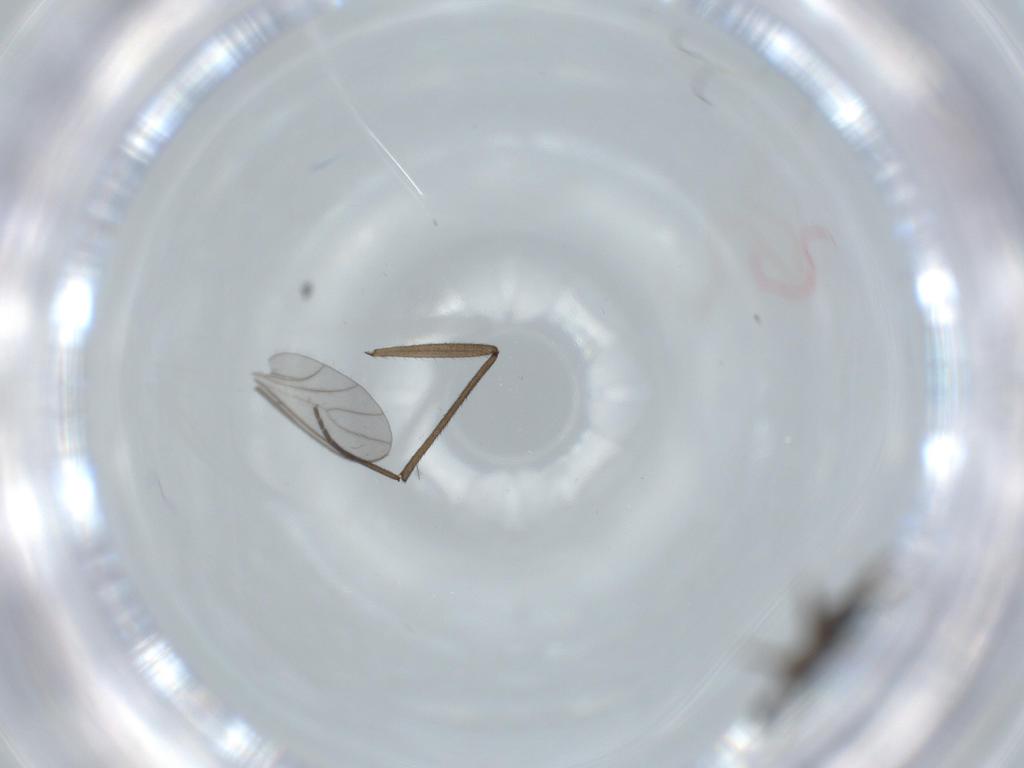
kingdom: Animalia
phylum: Arthropoda
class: Insecta
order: Diptera
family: Sciaridae
